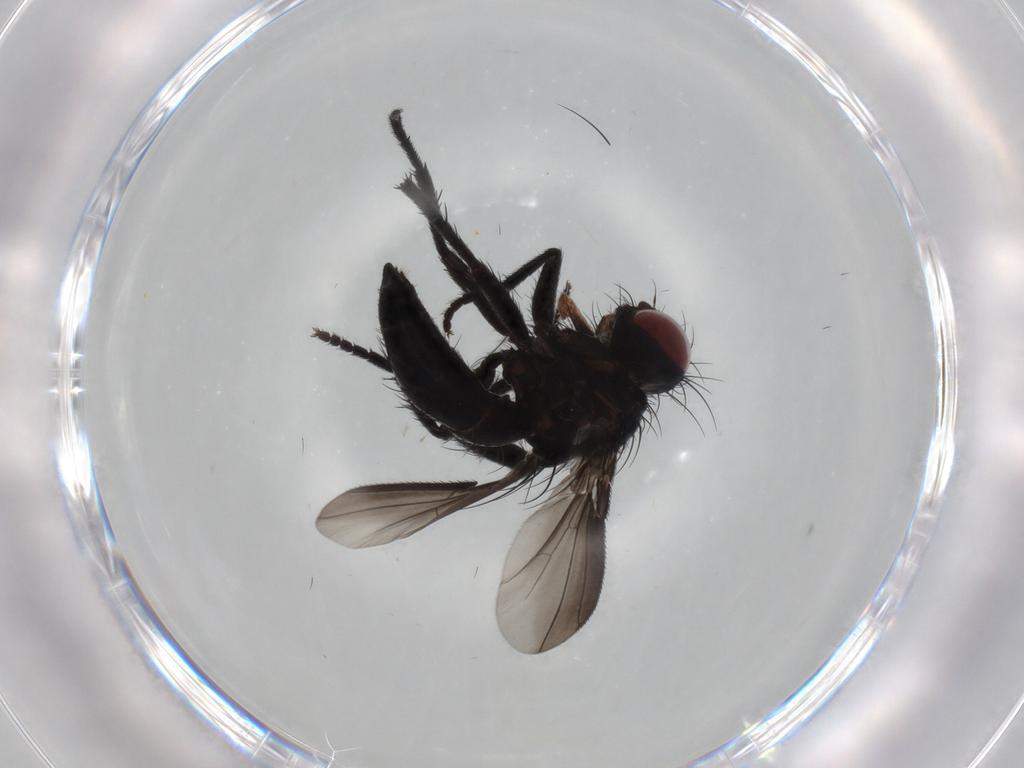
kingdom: Animalia
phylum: Arthropoda
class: Insecta
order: Diptera
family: Tachinidae
